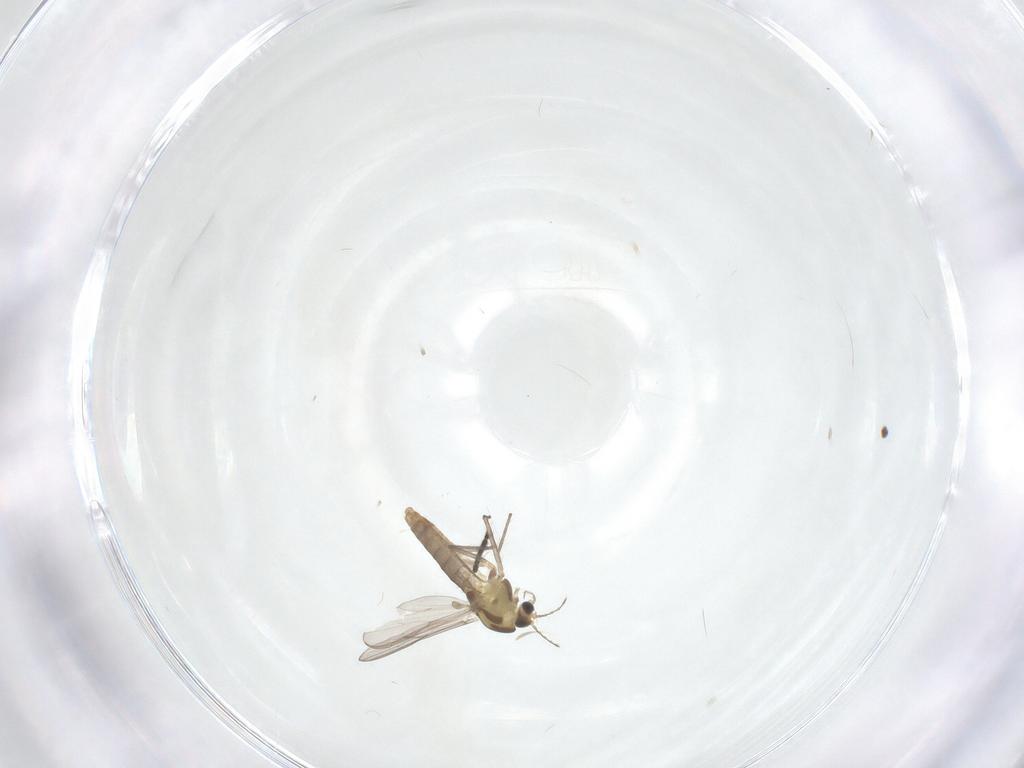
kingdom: Animalia
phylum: Arthropoda
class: Insecta
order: Diptera
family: Chironomidae
